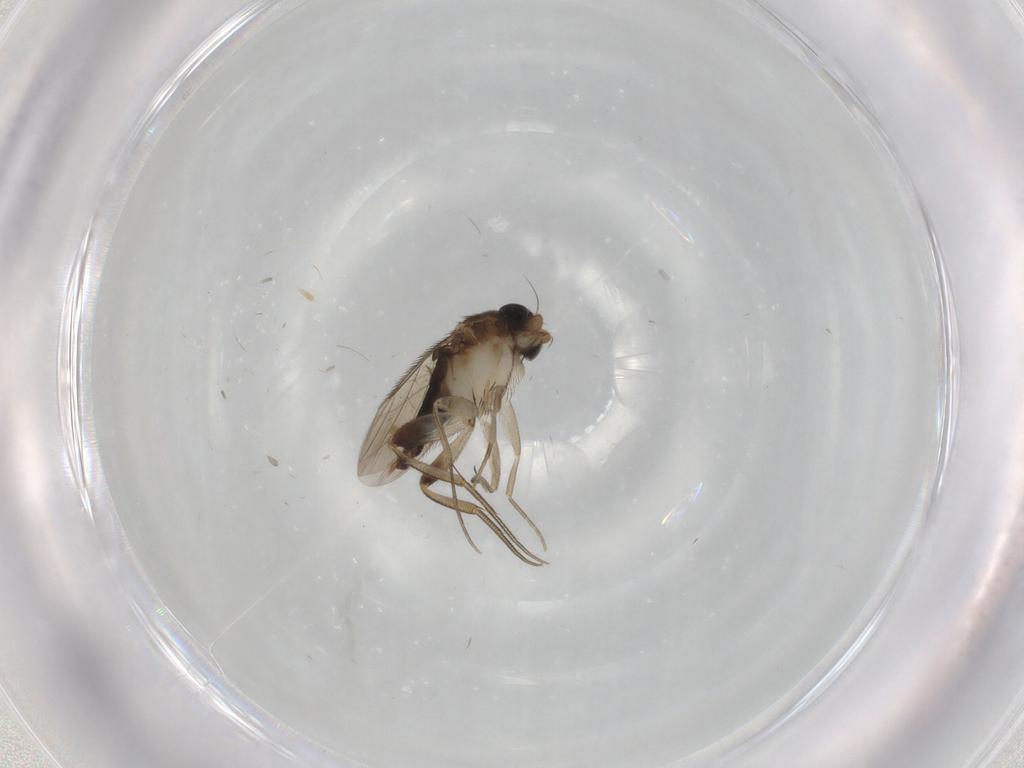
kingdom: Animalia
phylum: Arthropoda
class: Insecta
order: Diptera
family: Phoridae
